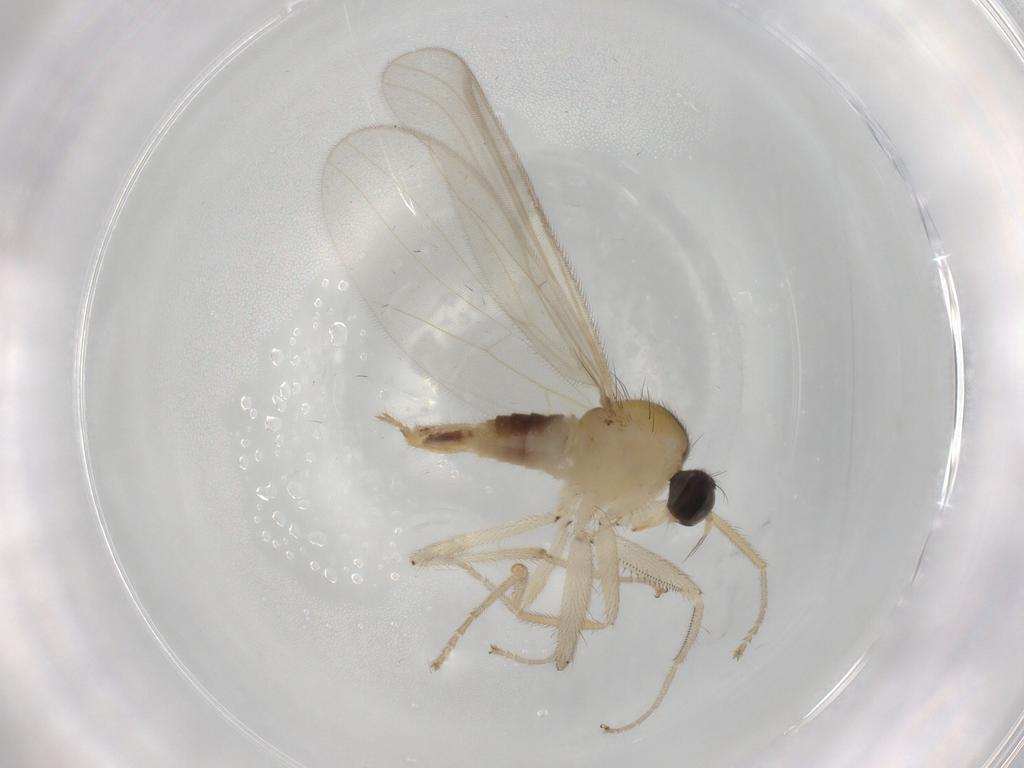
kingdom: Animalia
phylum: Arthropoda
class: Insecta
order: Diptera
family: Hybotidae
